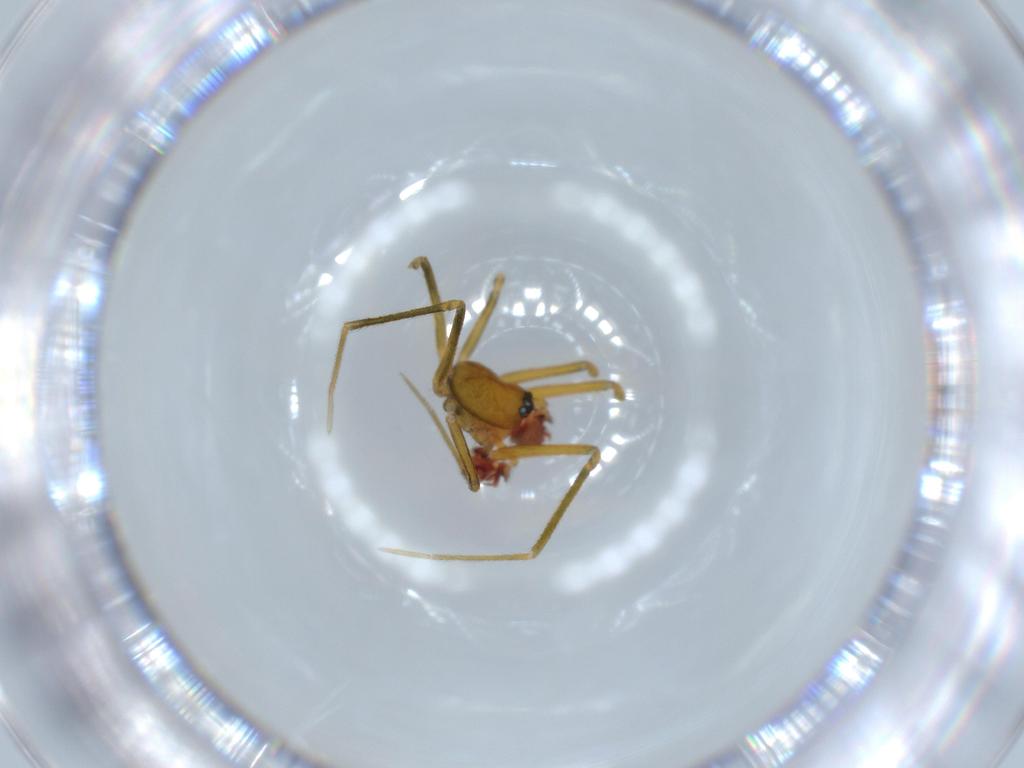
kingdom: Animalia
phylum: Arthropoda
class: Arachnida
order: Araneae
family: Linyphiidae
